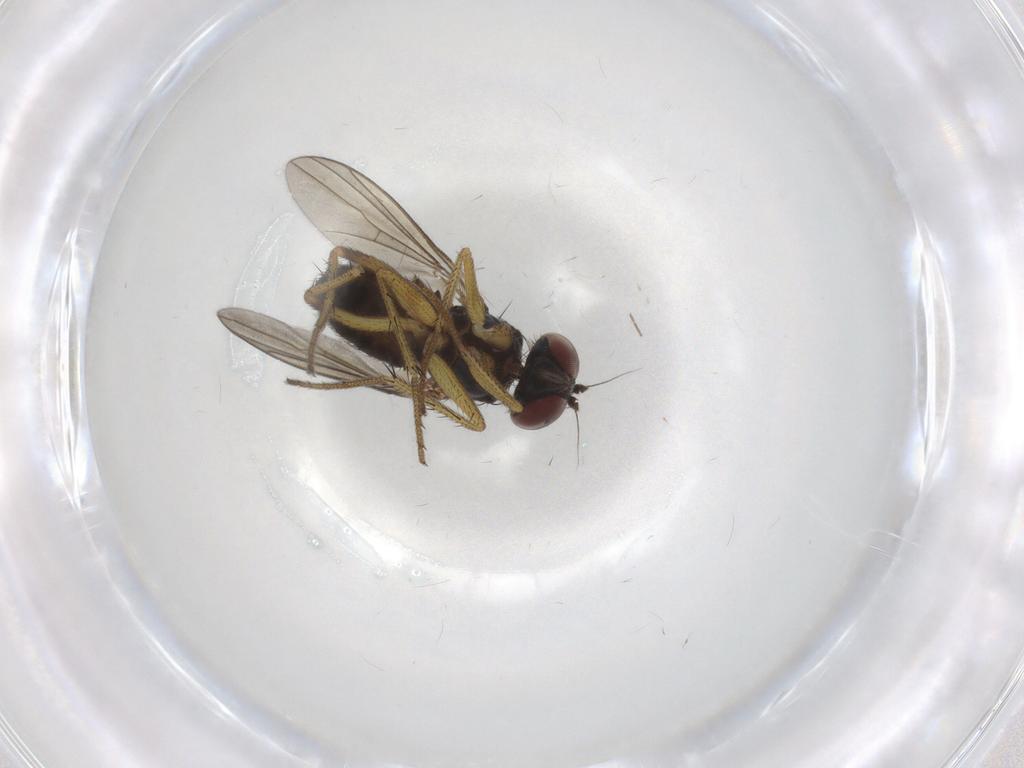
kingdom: Animalia
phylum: Arthropoda
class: Insecta
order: Diptera
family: Dolichopodidae
